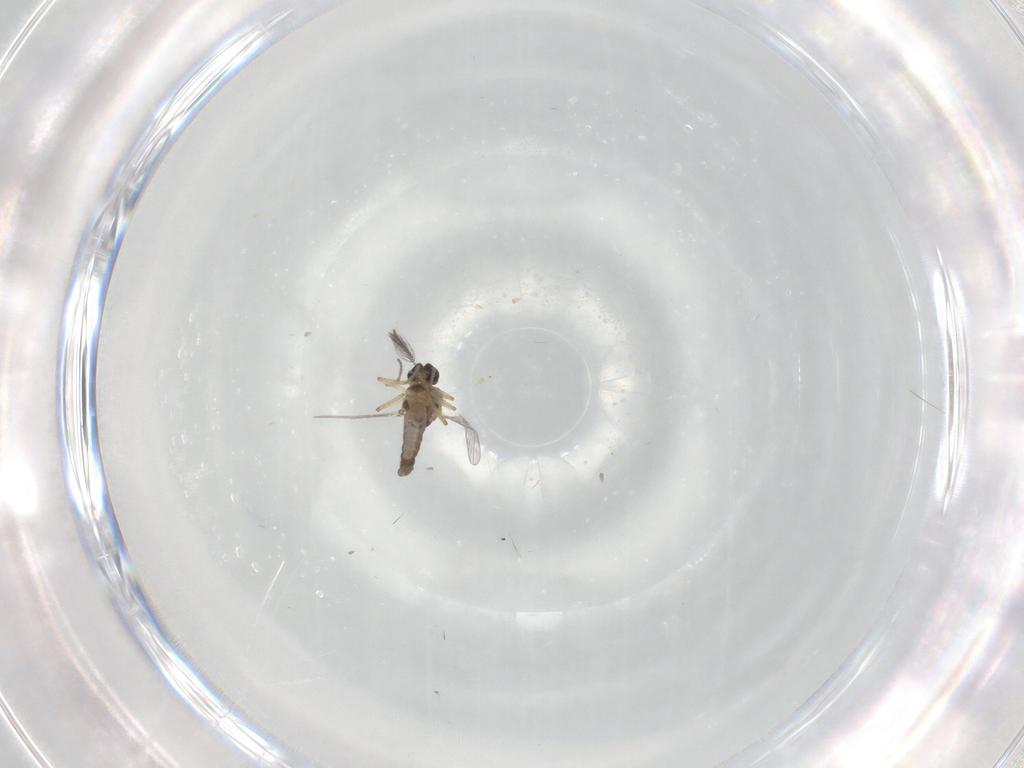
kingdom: Animalia
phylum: Arthropoda
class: Insecta
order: Diptera
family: Ceratopogonidae
